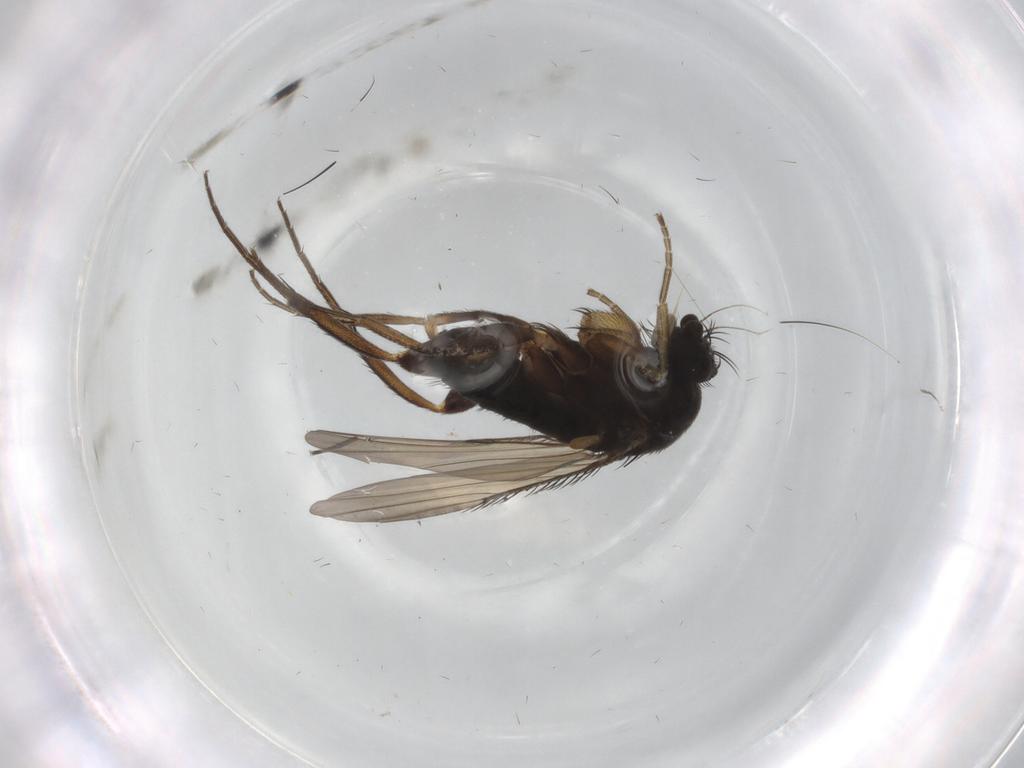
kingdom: Animalia
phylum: Arthropoda
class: Insecta
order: Diptera
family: Phoridae
